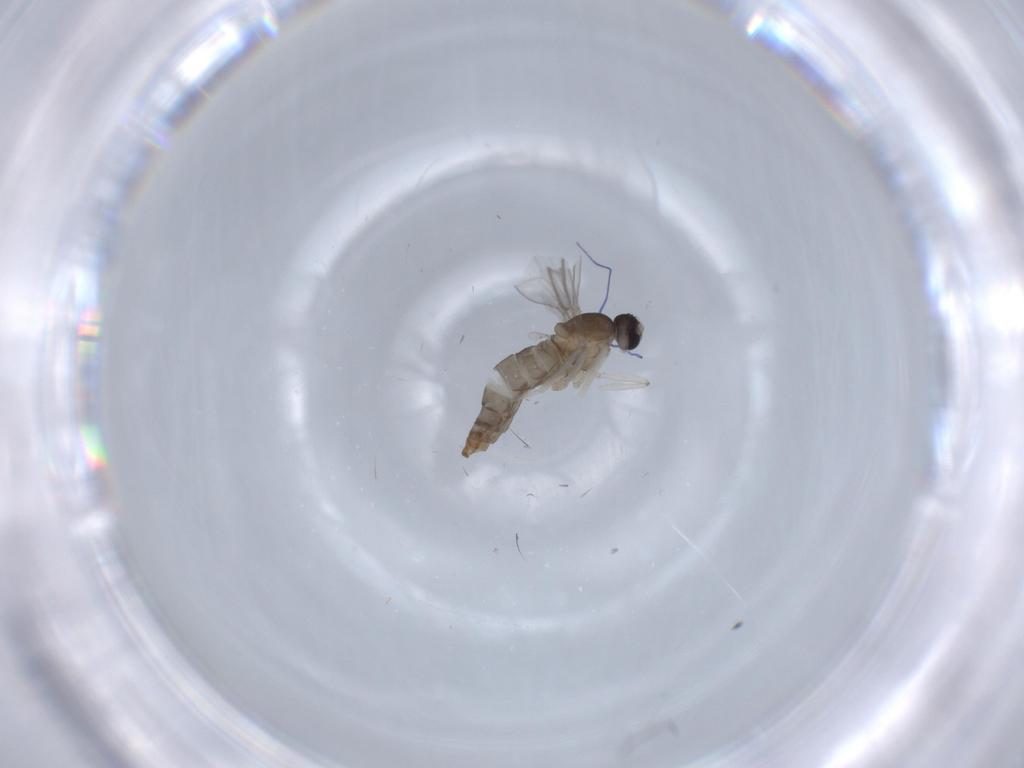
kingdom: Animalia
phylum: Arthropoda
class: Insecta
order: Diptera
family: Cecidomyiidae
